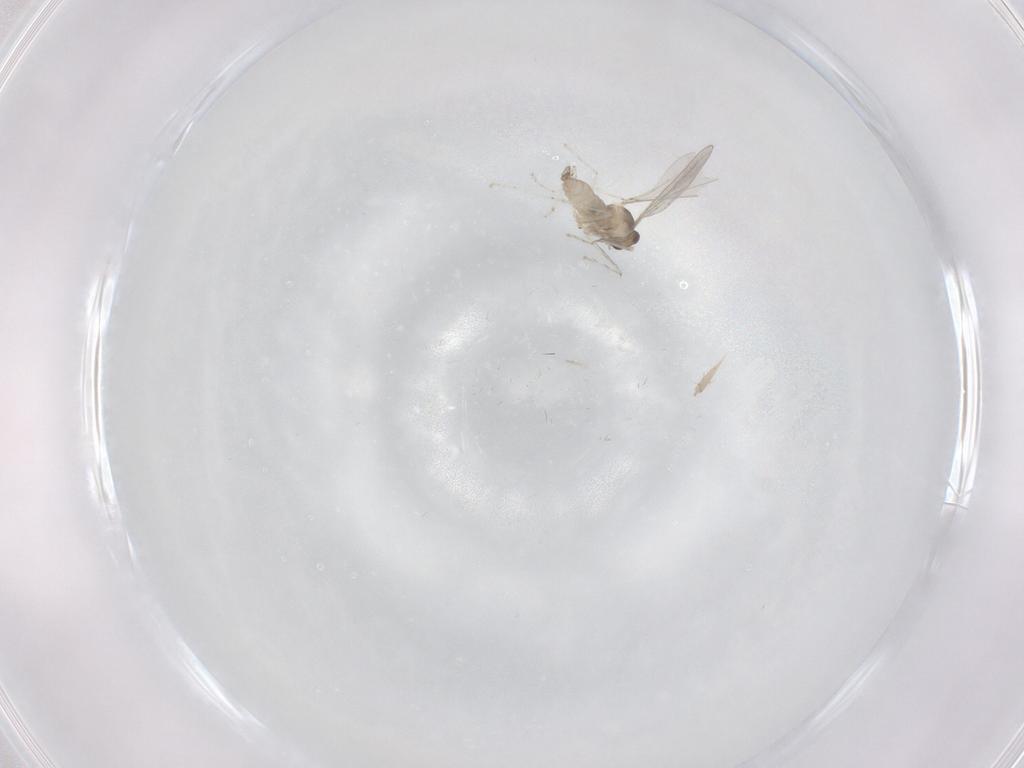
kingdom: Animalia
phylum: Arthropoda
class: Insecta
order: Diptera
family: Cecidomyiidae
